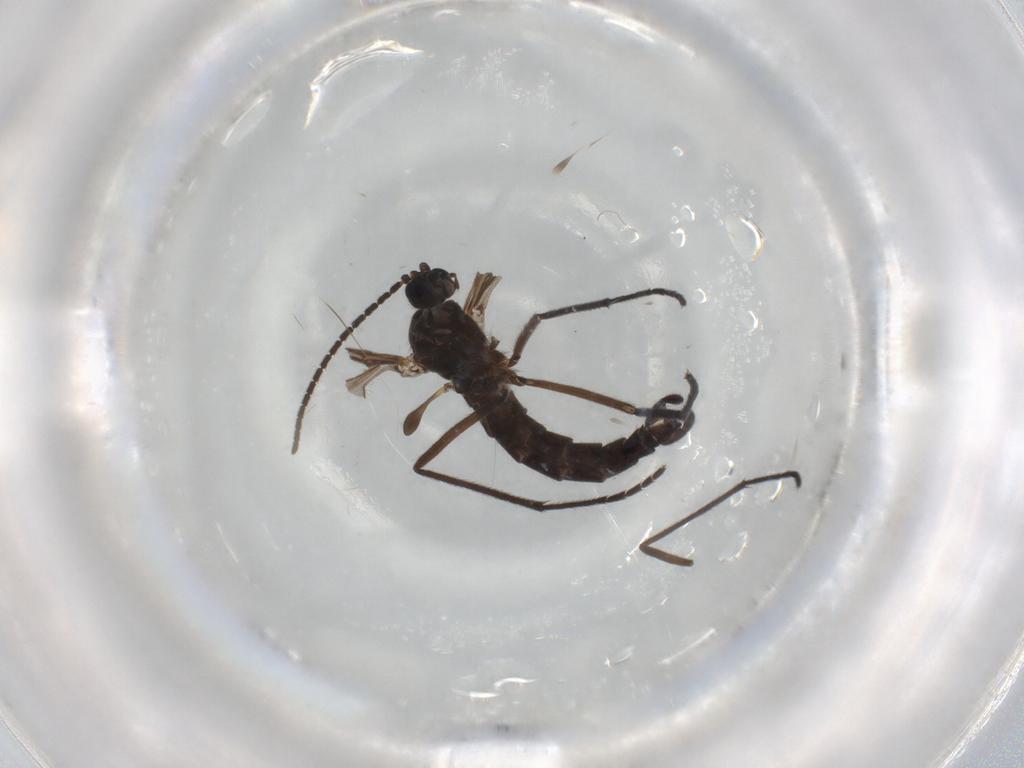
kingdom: Animalia
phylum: Arthropoda
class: Insecta
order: Diptera
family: Sciaridae
